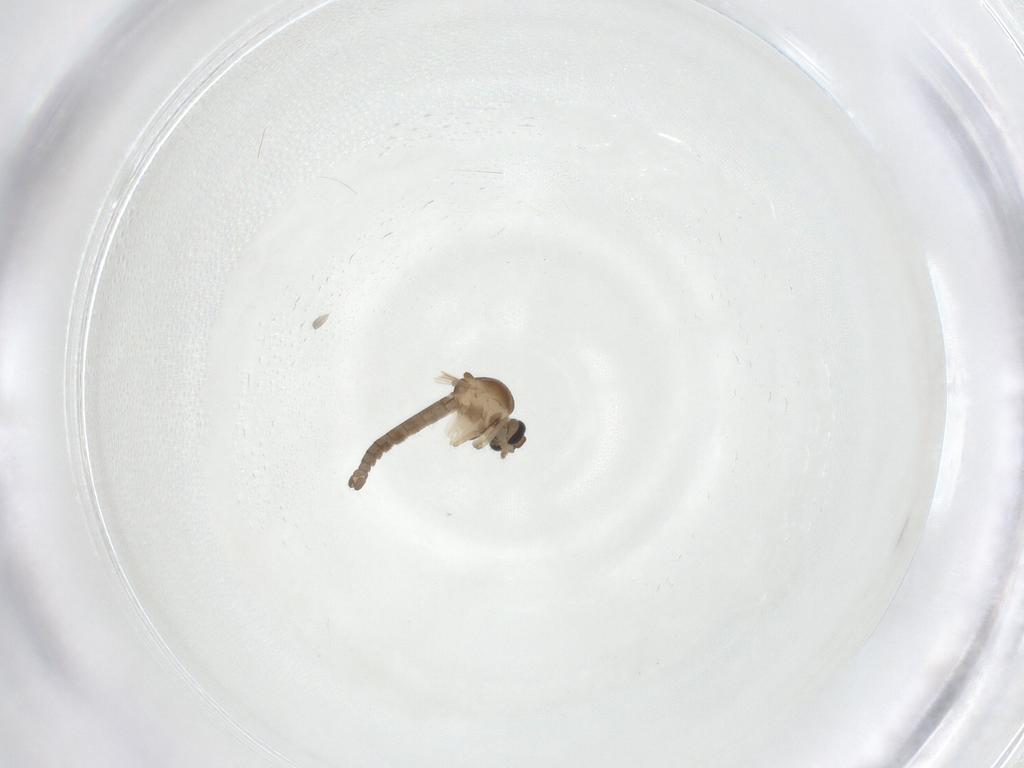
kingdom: Animalia
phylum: Arthropoda
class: Insecta
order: Diptera
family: Ceratopogonidae
